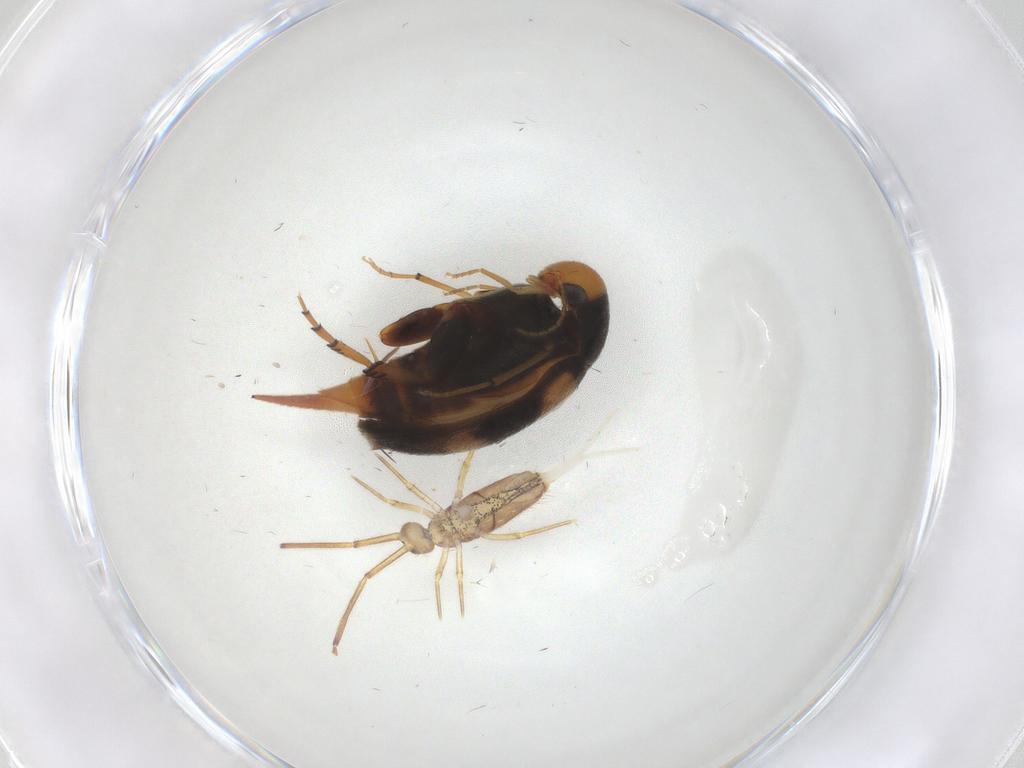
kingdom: Animalia
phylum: Arthropoda
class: Insecta
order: Coleoptera
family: Mordellidae
